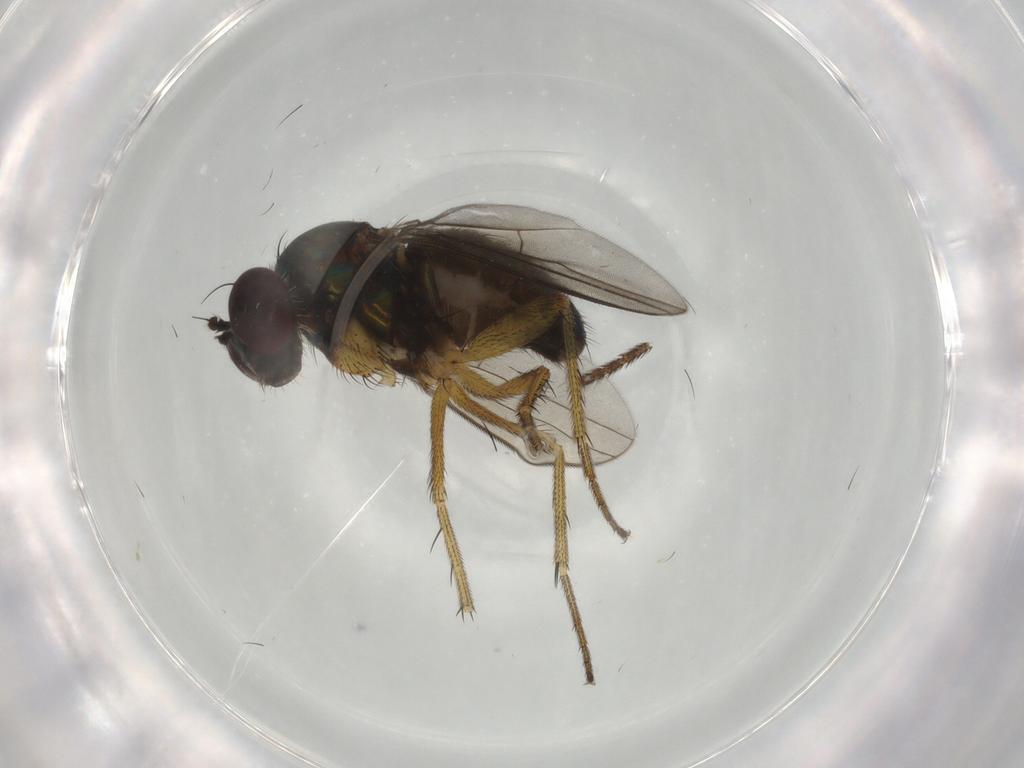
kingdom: Animalia
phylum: Arthropoda
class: Insecta
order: Diptera
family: Dolichopodidae
